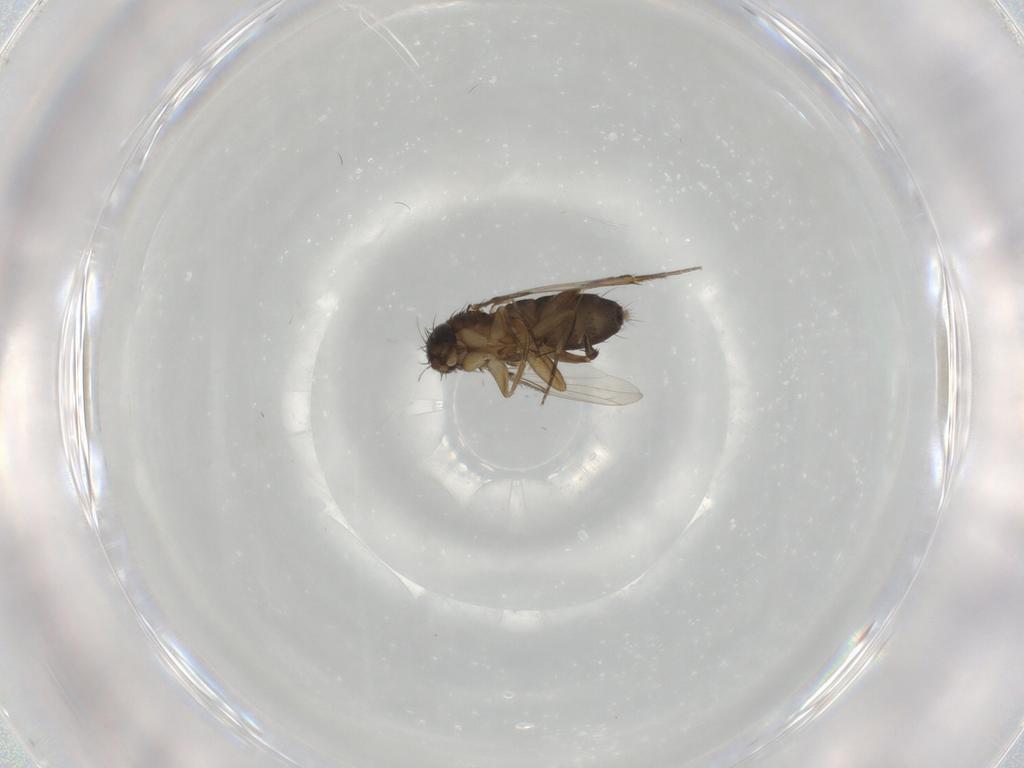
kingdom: Animalia
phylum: Arthropoda
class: Insecta
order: Diptera
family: Phoridae
